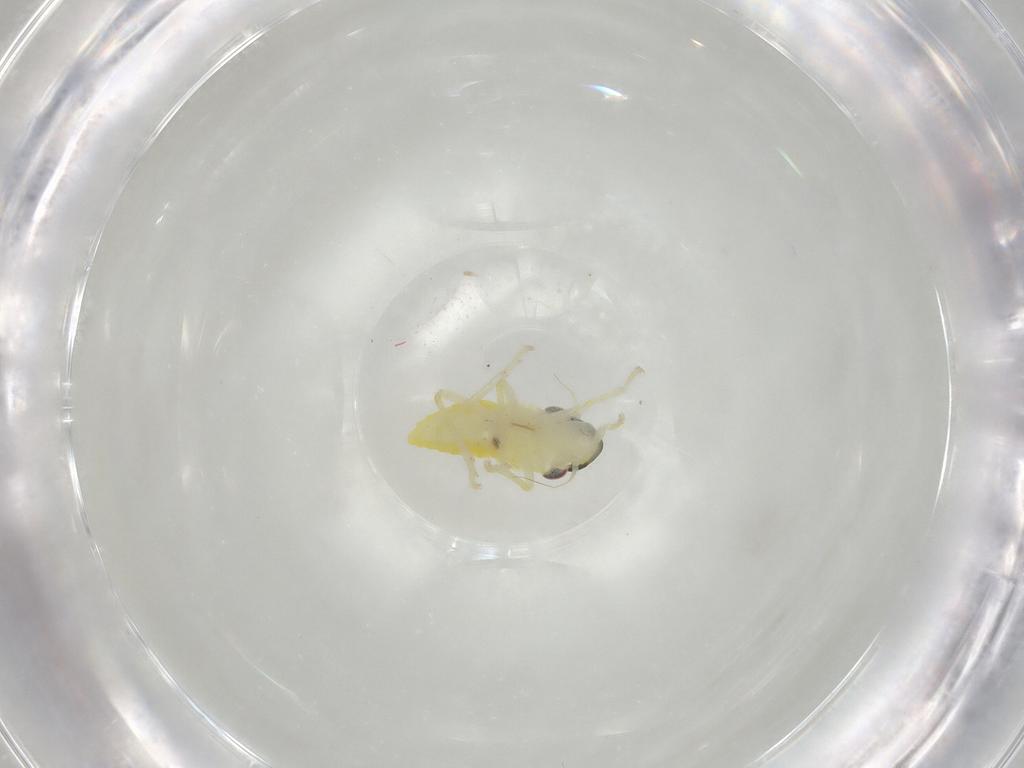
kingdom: Animalia
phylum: Arthropoda
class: Insecta
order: Hemiptera
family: Cicadellidae
